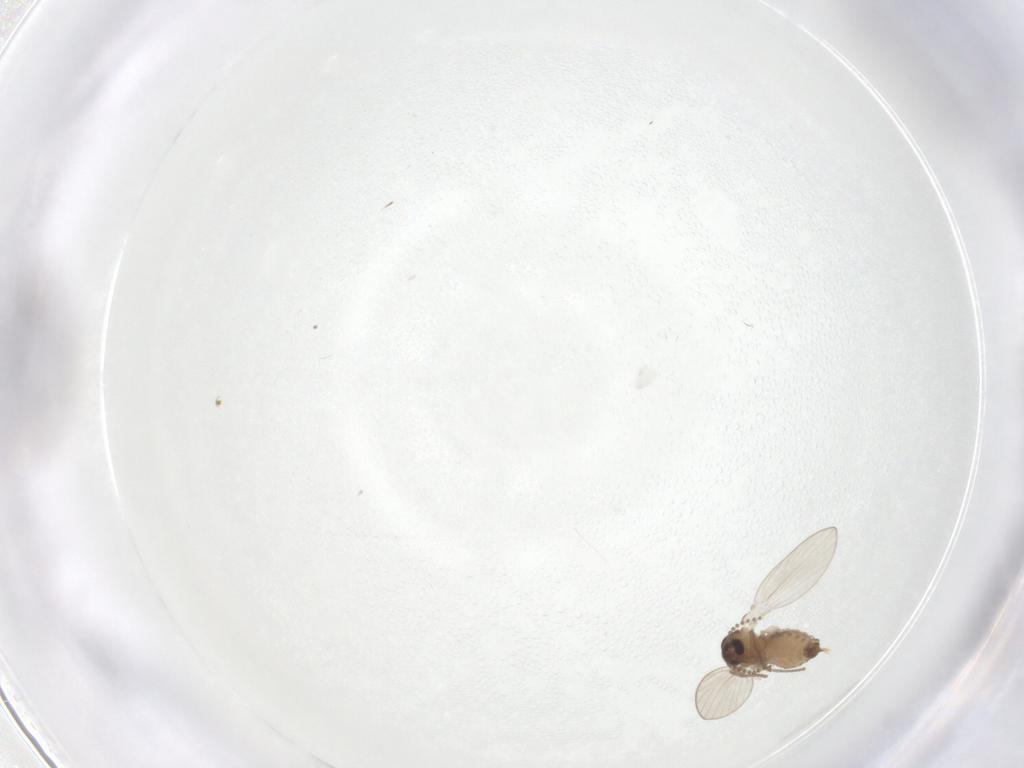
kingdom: Animalia
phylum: Arthropoda
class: Insecta
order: Diptera
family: Psychodidae
